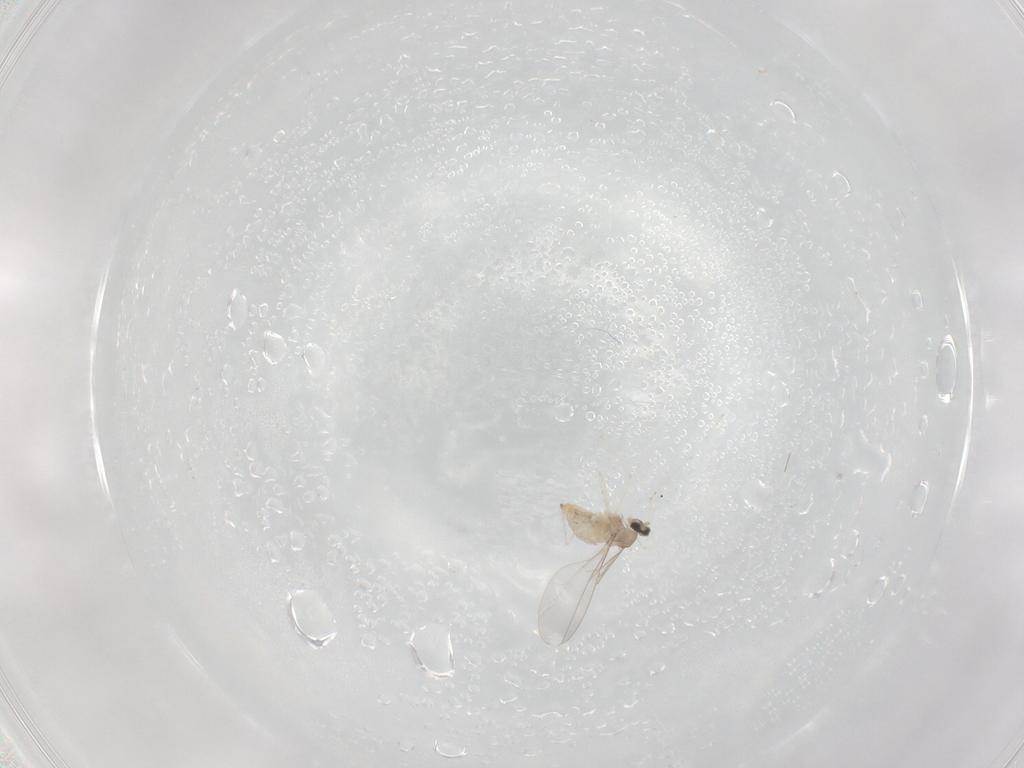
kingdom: Animalia
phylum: Arthropoda
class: Insecta
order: Diptera
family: Cecidomyiidae
